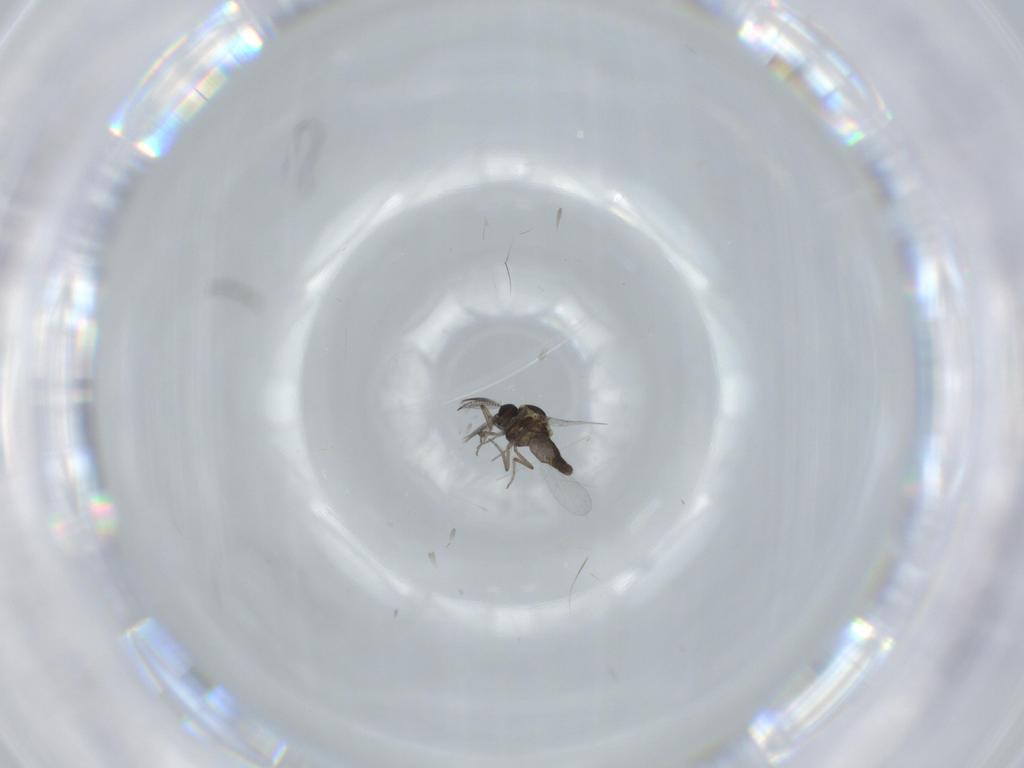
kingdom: Animalia
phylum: Arthropoda
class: Insecta
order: Diptera
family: Ceratopogonidae
